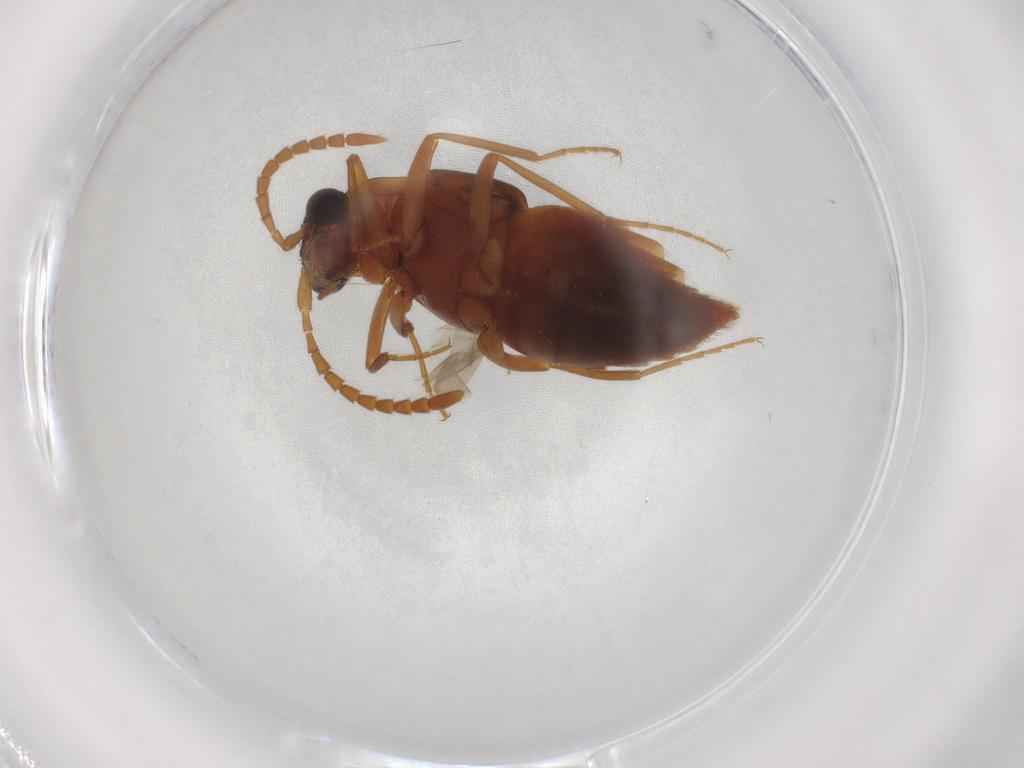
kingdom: Animalia
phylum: Arthropoda
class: Insecta
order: Coleoptera
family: Staphylinidae
